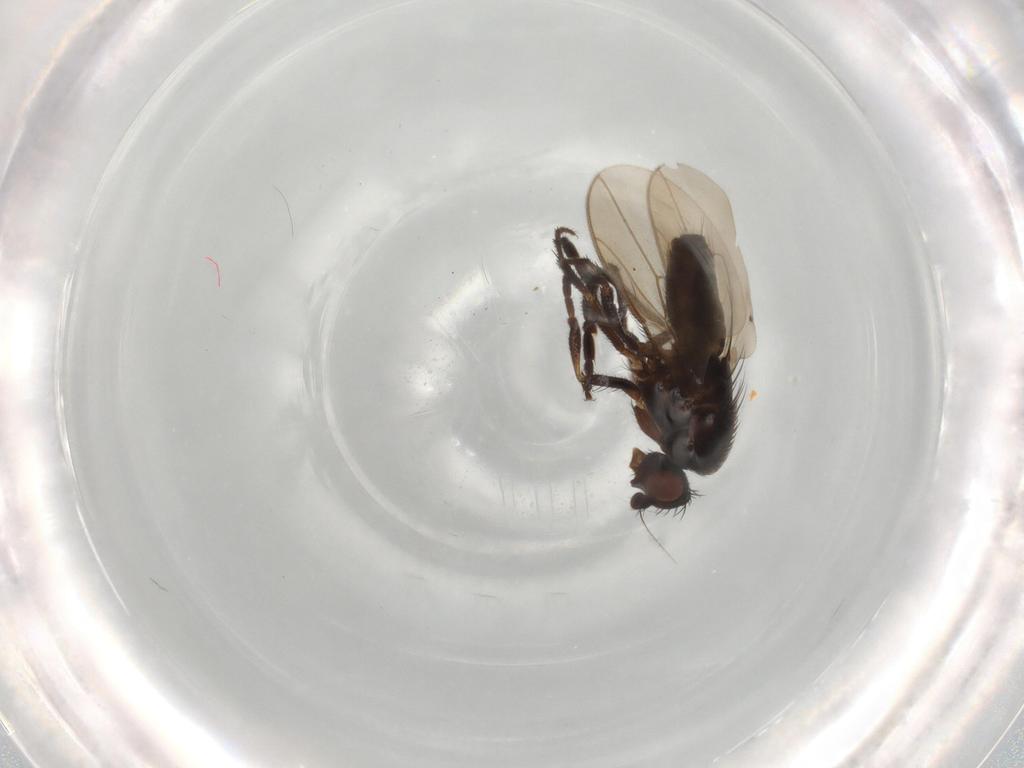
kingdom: Animalia
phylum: Arthropoda
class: Insecta
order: Diptera
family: Sphaeroceridae
